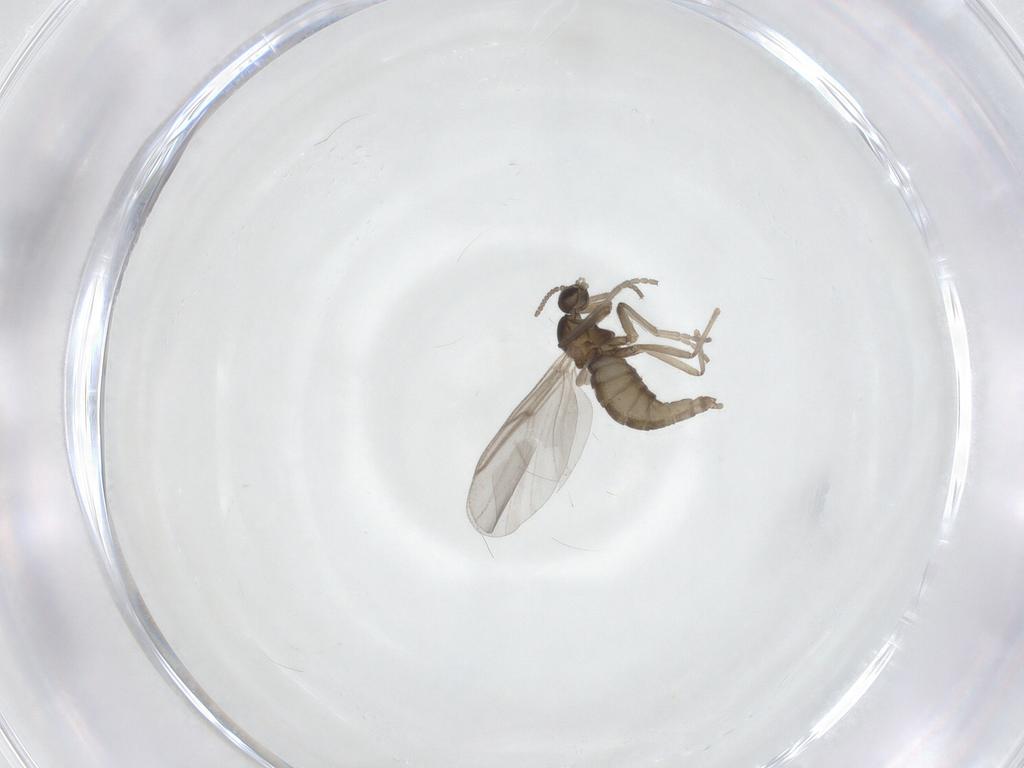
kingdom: Animalia
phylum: Arthropoda
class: Insecta
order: Diptera
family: Cecidomyiidae
